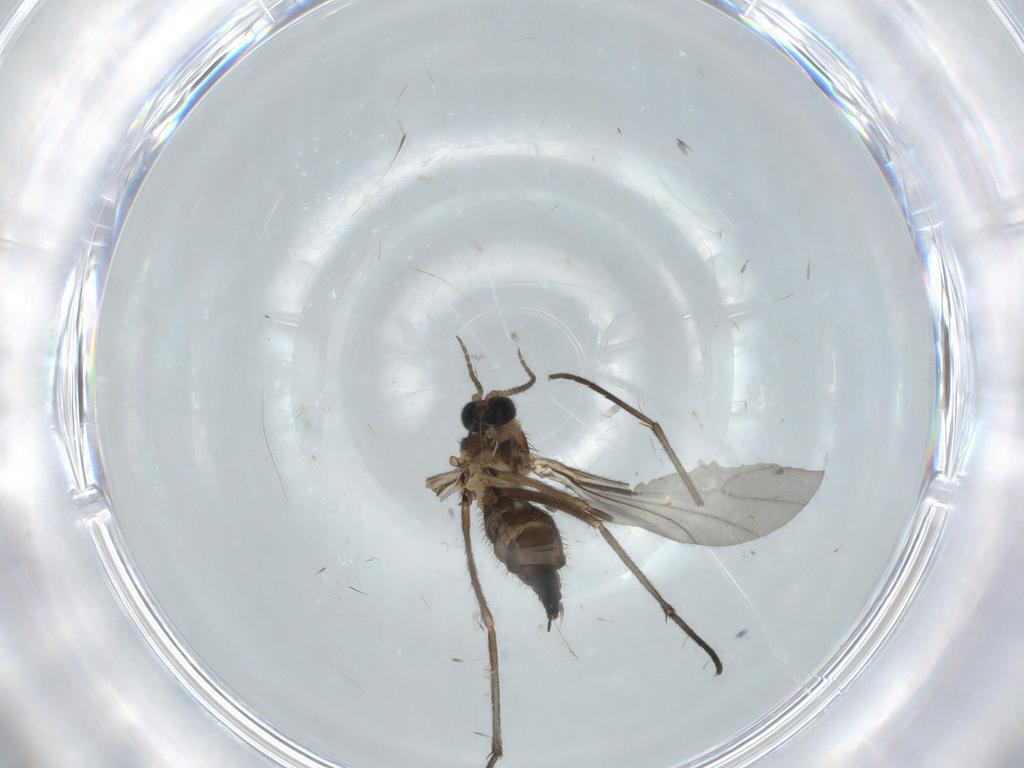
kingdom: Animalia
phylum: Arthropoda
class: Insecta
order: Diptera
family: Sciaridae
